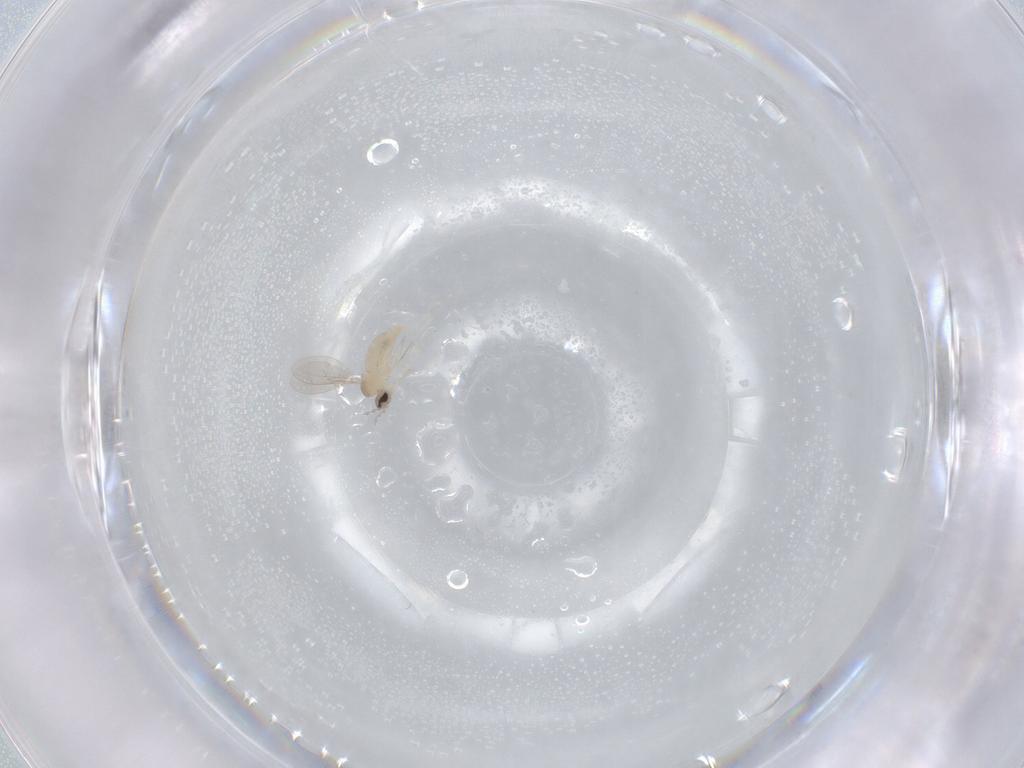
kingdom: Animalia
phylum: Arthropoda
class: Insecta
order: Diptera
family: Cecidomyiidae
